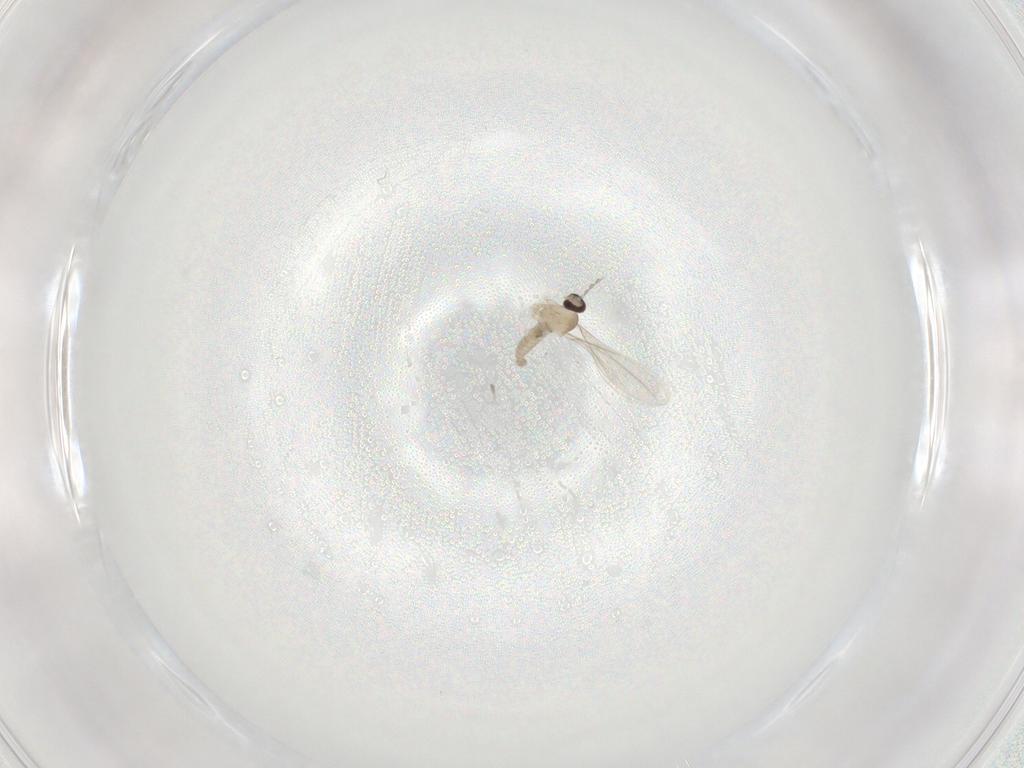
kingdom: Animalia
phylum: Arthropoda
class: Insecta
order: Diptera
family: Cecidomyiidae
